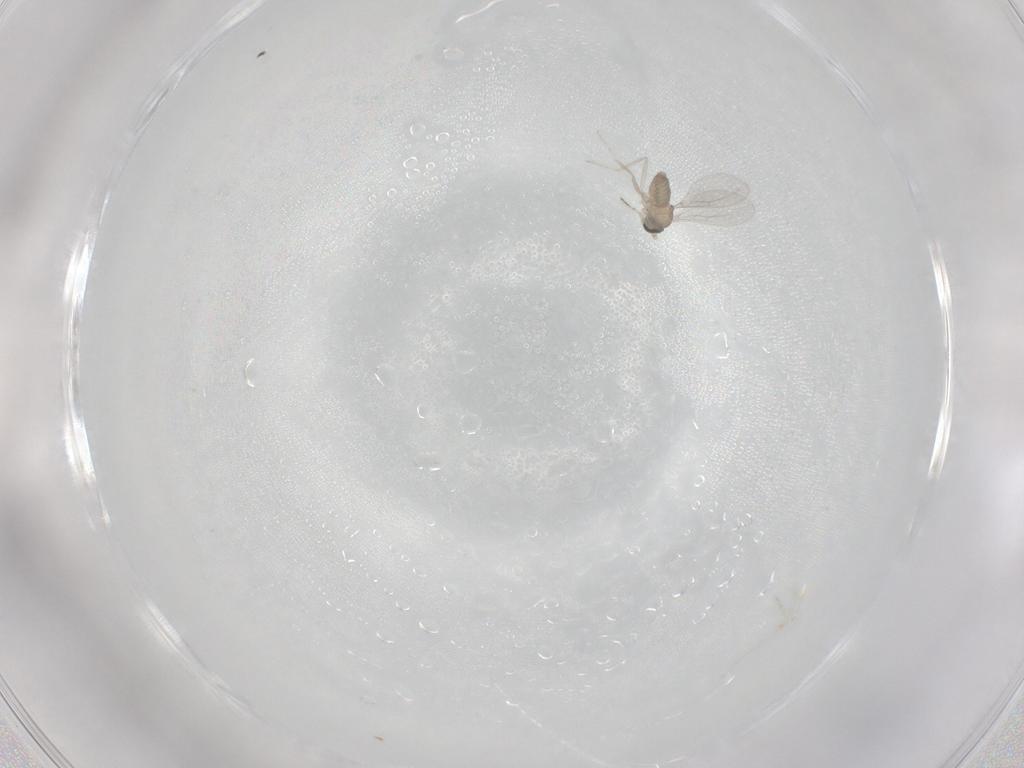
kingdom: Animalia
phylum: Arthropoda
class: Insecta
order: Diptera
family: Cecidomyiidae
